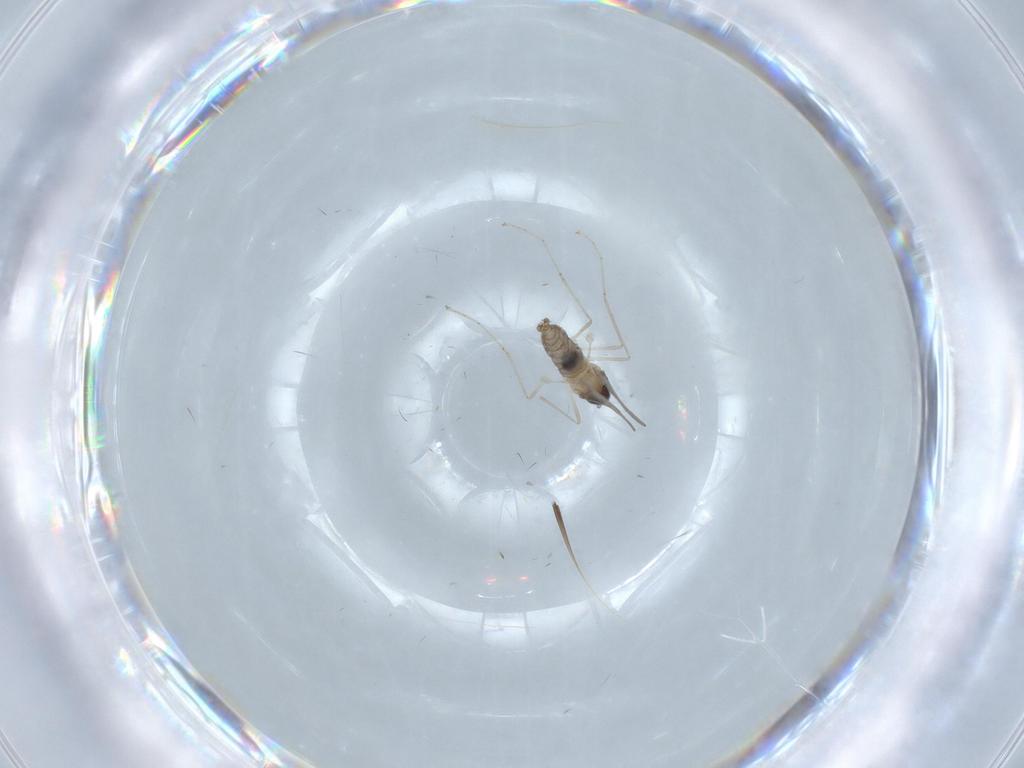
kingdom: Animalia
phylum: Arthropoda
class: Insecta
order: Diptera
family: Cecidomyiidae
